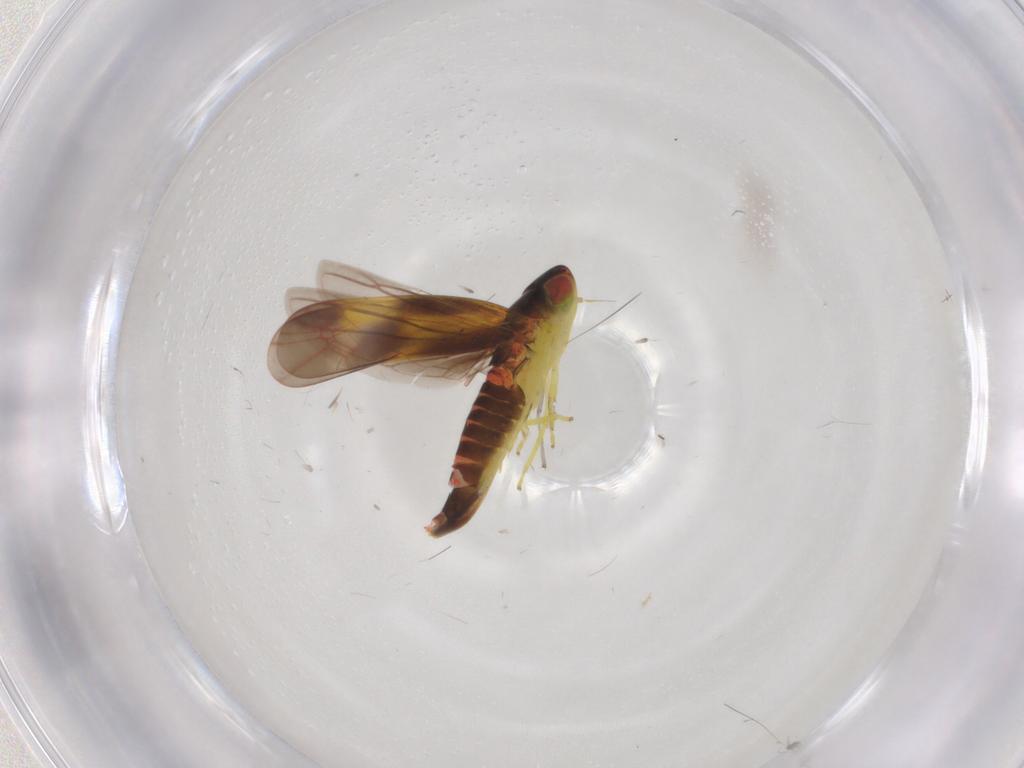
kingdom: Animalia
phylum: Arthropoda
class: Insecta
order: Hemiptera
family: Cicadellidae
